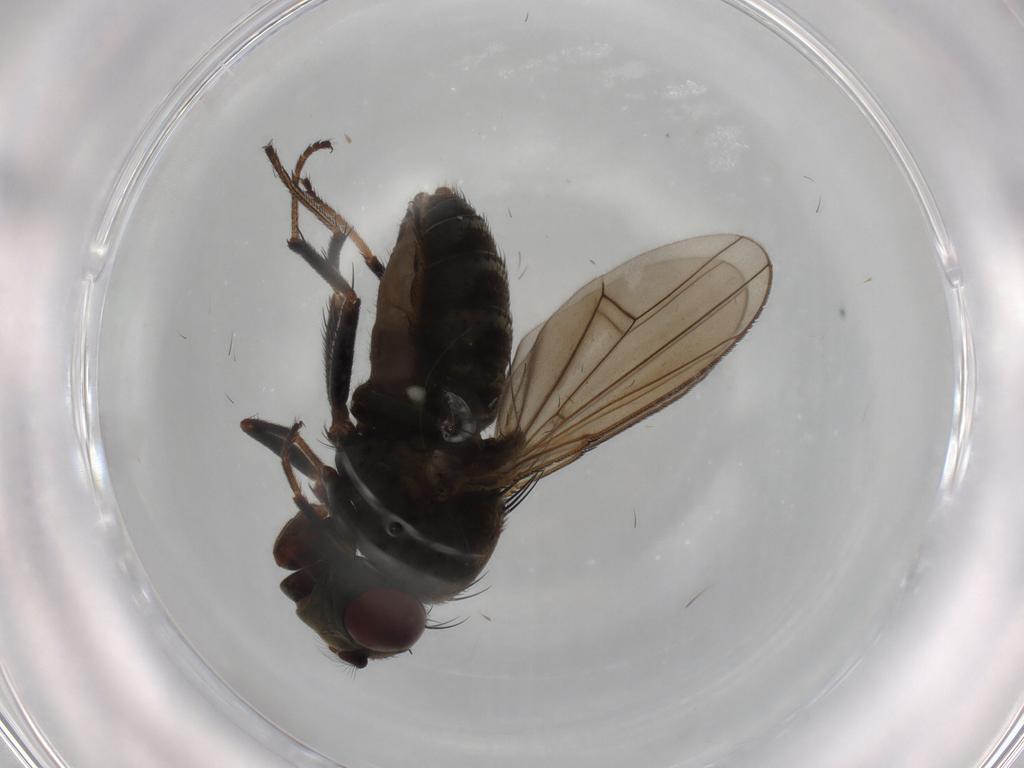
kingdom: Animalia
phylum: Arthropoda
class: Insecta
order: Diptera
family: Ephydridae
